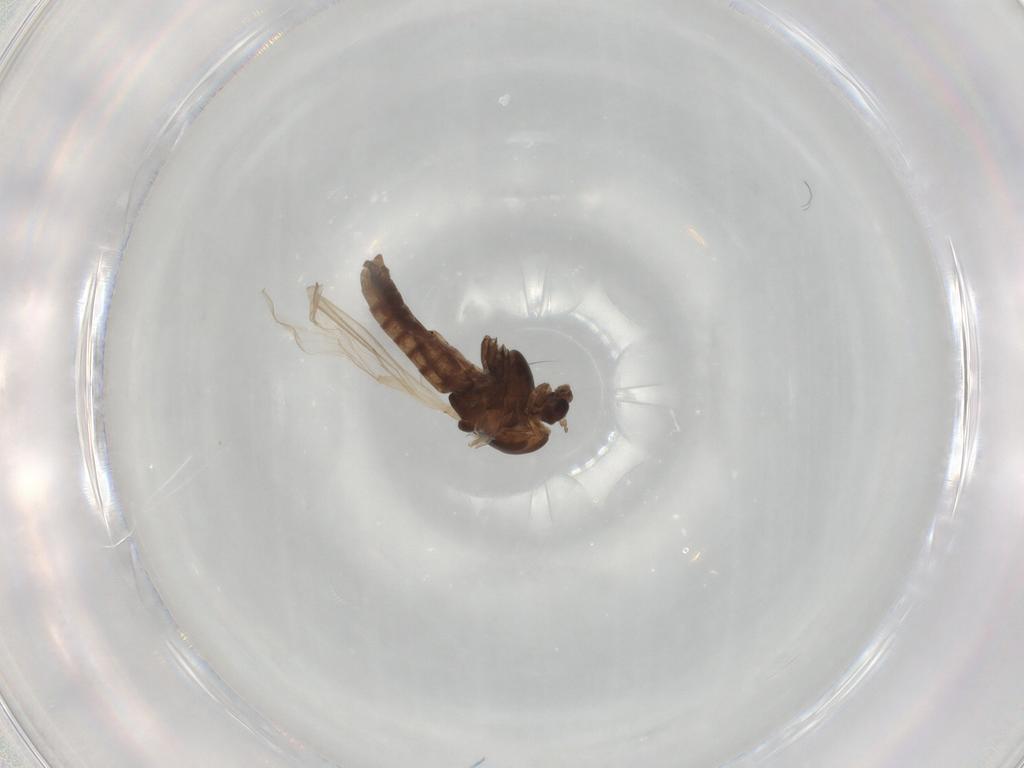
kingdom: Animalia
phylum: Arthropoda
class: Insecta
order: Diptera
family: Chironomidae
